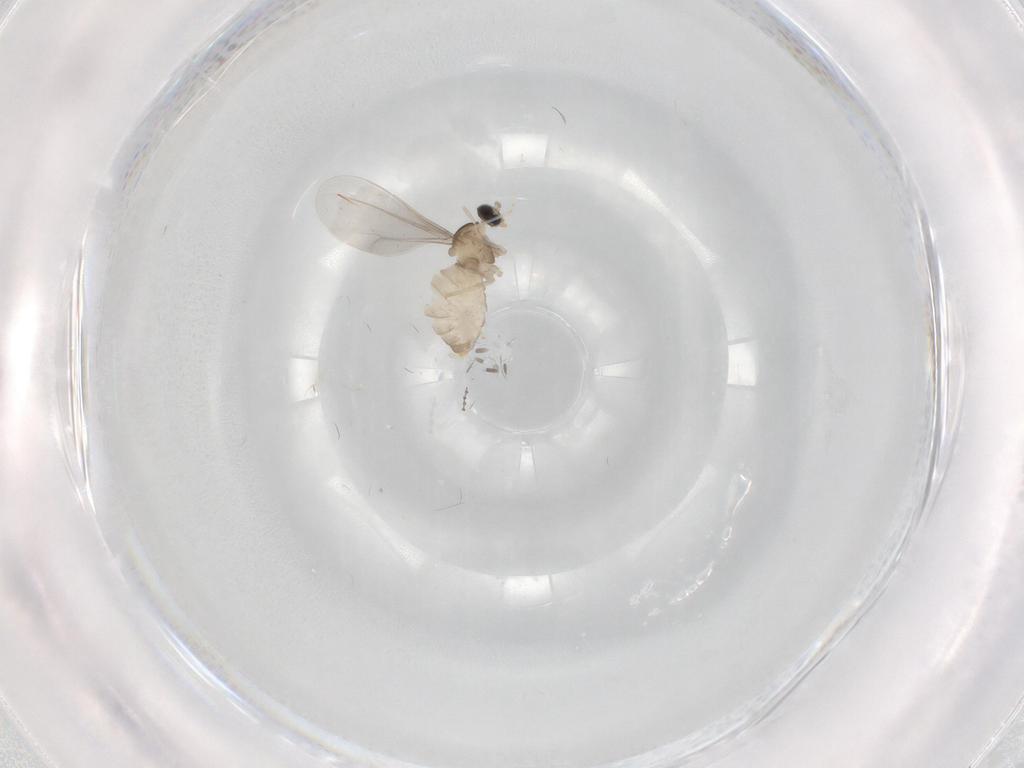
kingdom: Animalia
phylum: Arthropoda
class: Insecta
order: Diptera
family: Cecidomyiidae
